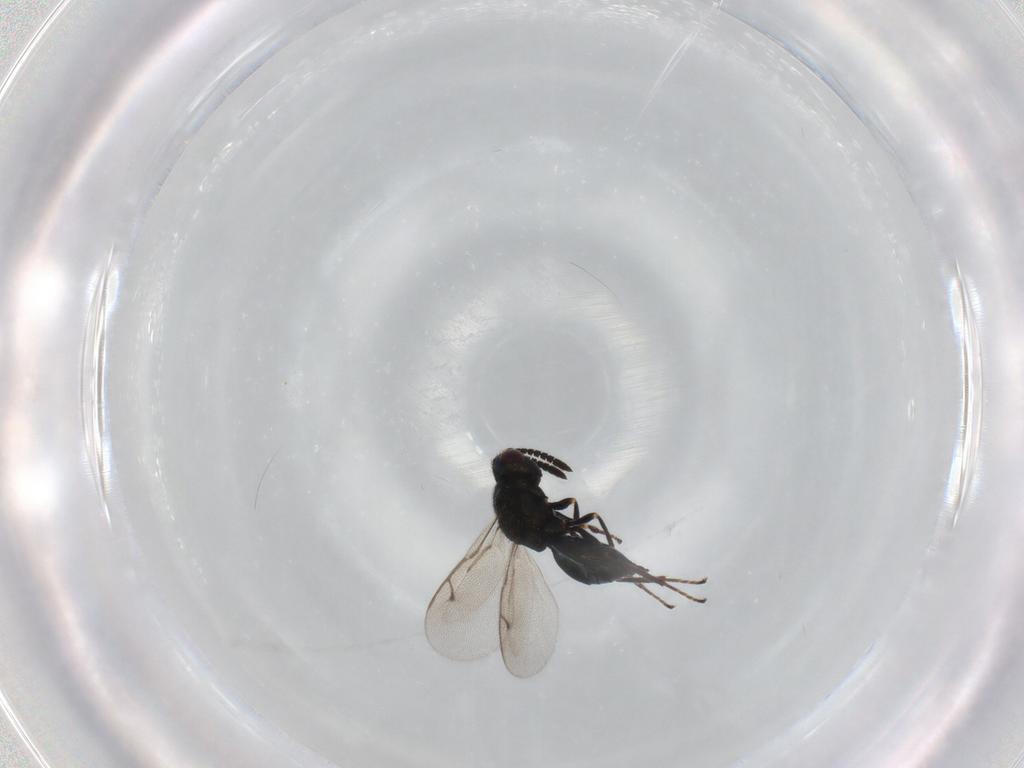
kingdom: Animalia
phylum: Arthropoda
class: Insecta
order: Hymenoptera
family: Pteromalidae
